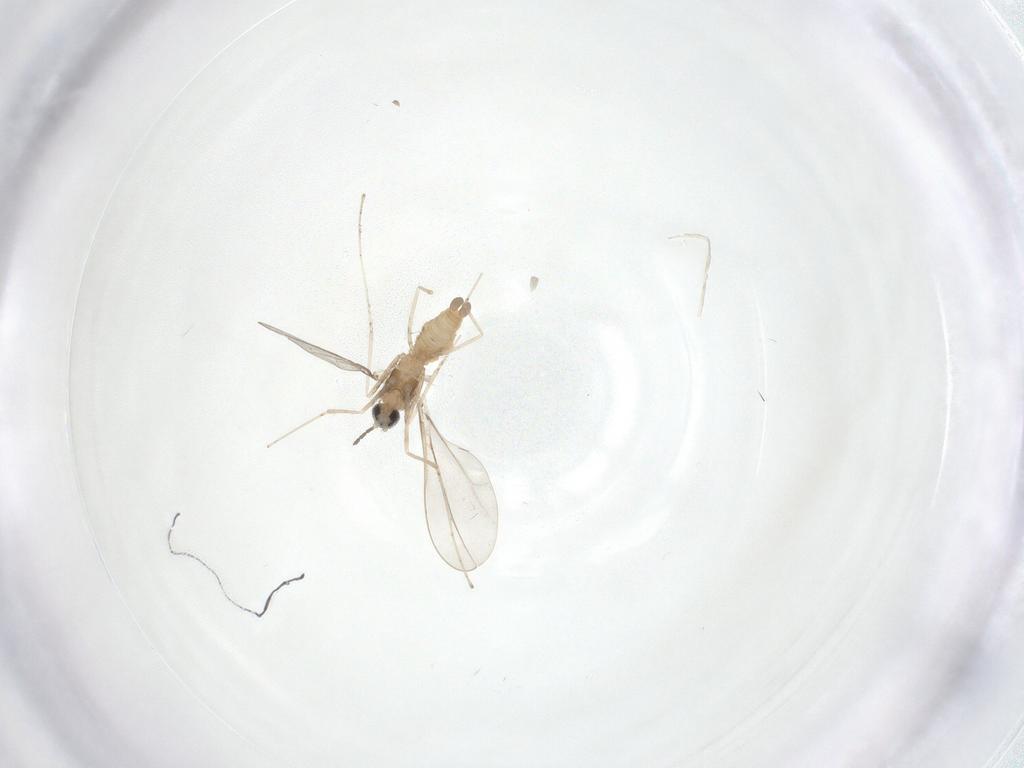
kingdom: Animalia
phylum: Arthropoda
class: Insecta
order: Diptera
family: Cecidomyiidae
